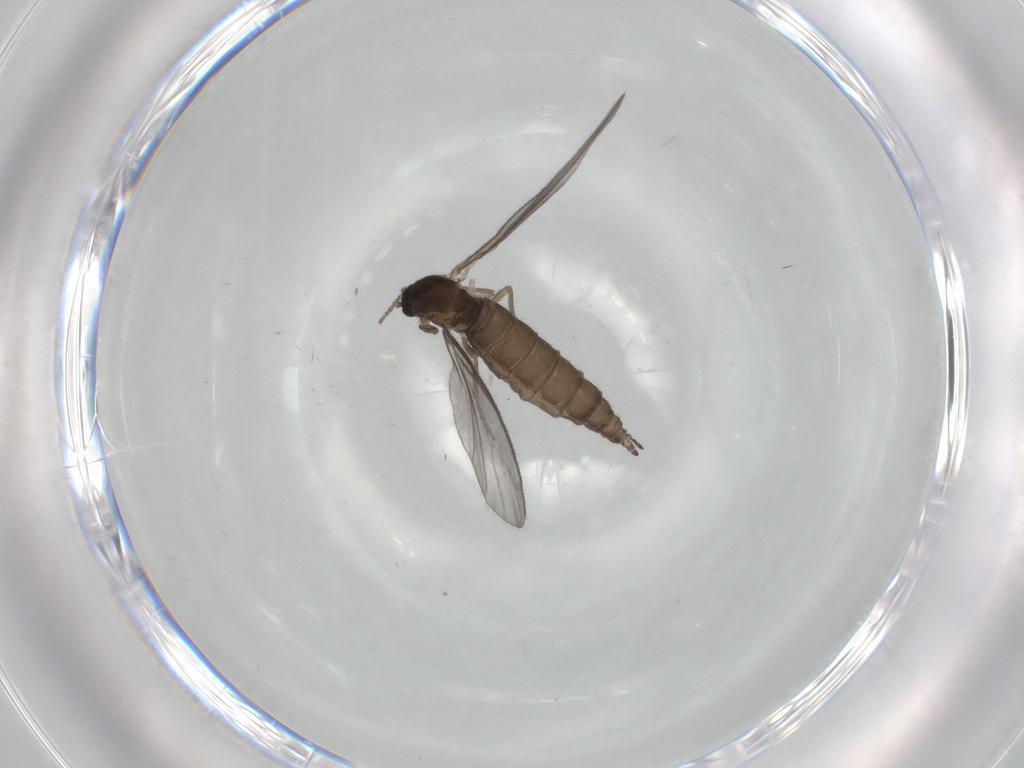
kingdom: Animalia
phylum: Arthropoda
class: Insecta
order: Diptera
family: Sciaridae
